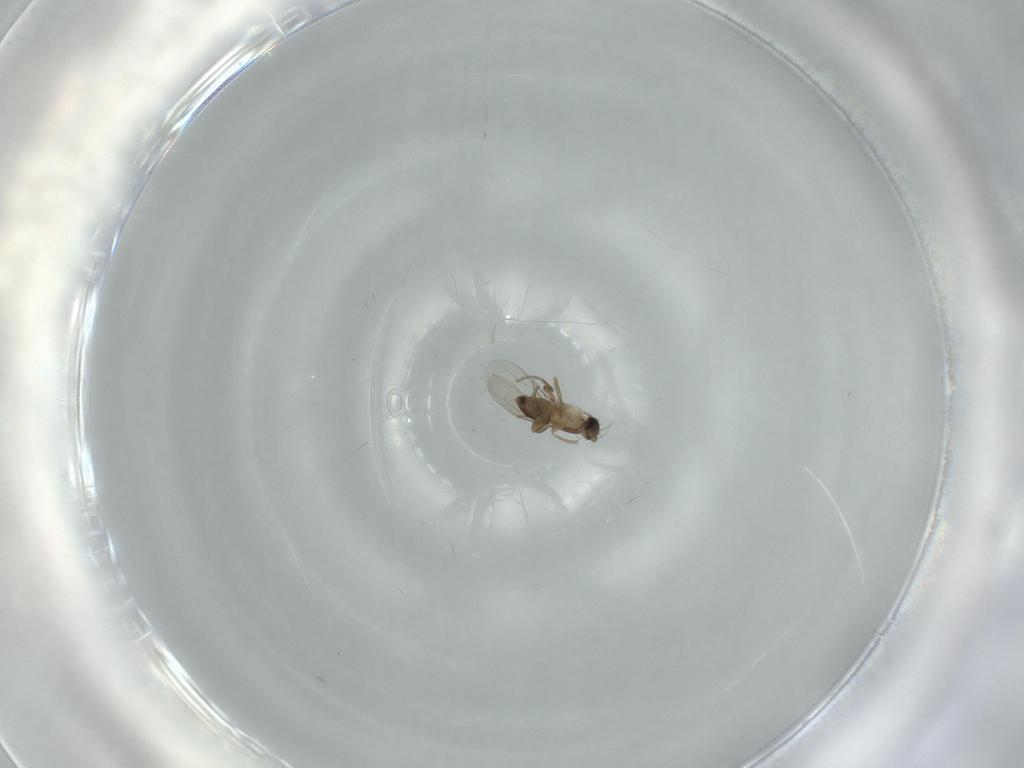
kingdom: Animalia
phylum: Arthropoda
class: Insecta
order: Diptera
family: Phoridae
